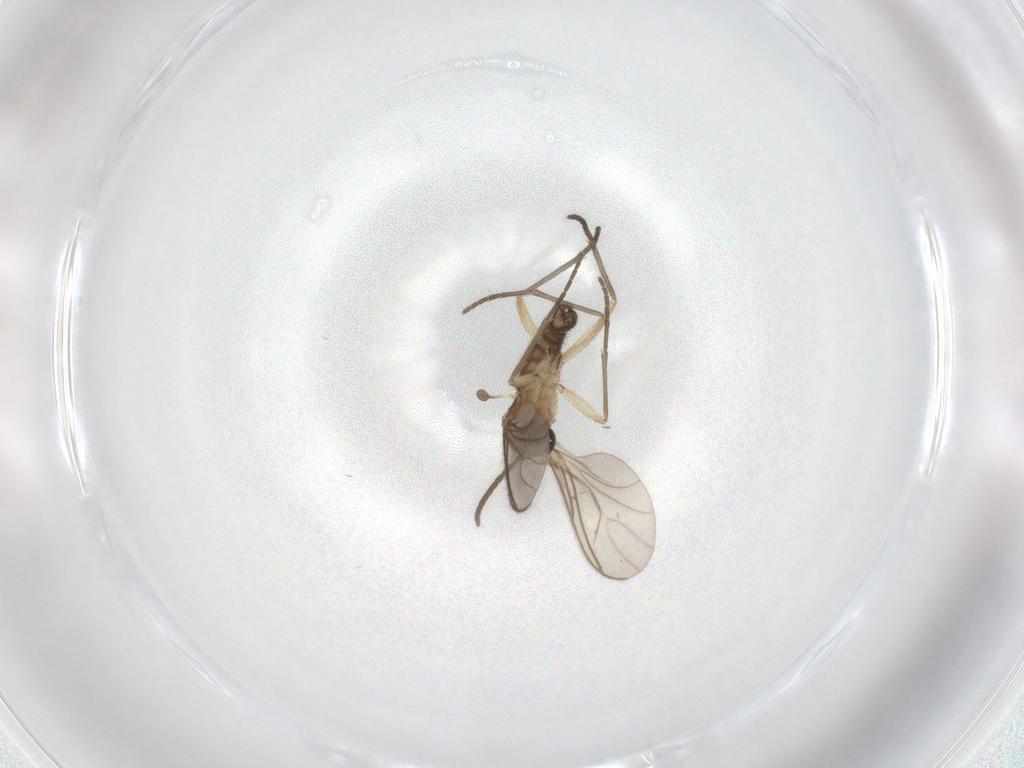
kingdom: Animalia
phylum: Arthropoda
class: Insecta
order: Diptera
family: Sciaridae
